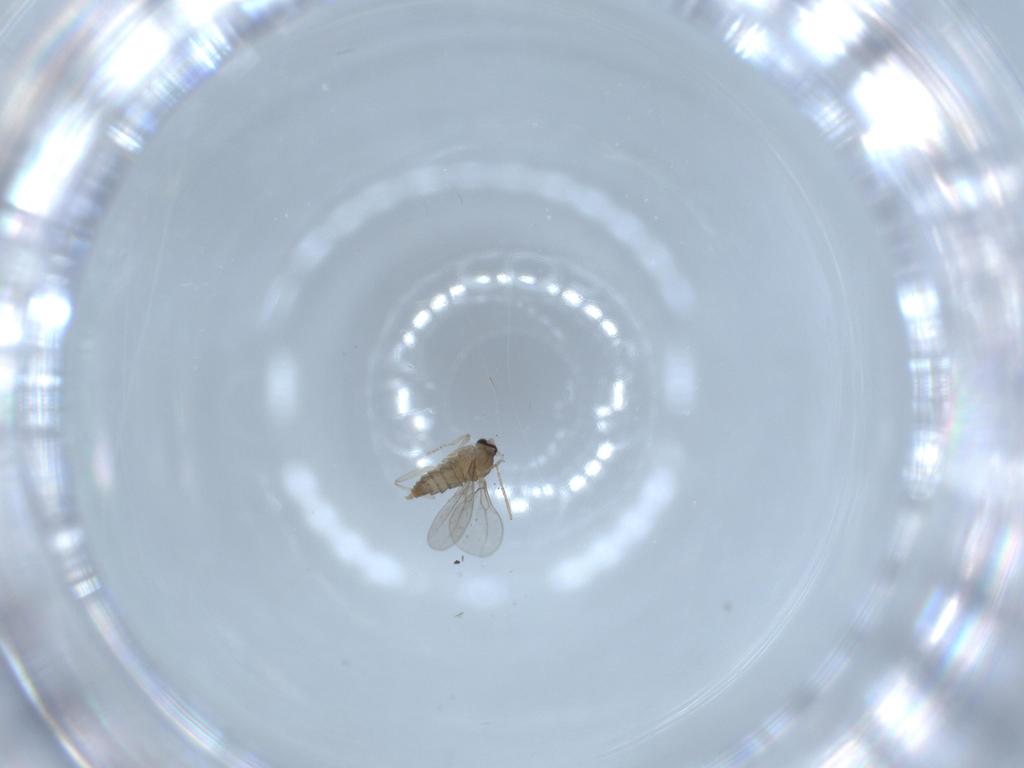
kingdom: Animalia
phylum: Arthropoda
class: Insecta
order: Diptera
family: Chironomidae
